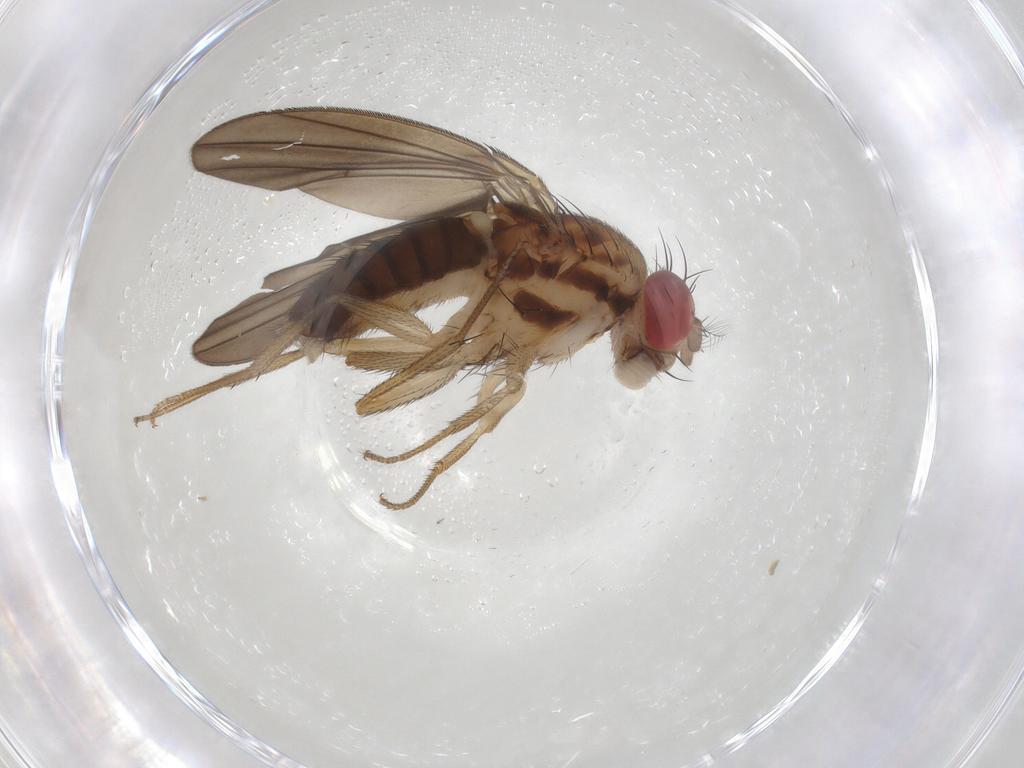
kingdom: Animalia
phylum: Arthropoda
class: Insecta
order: Diptera
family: Drosophilidae
